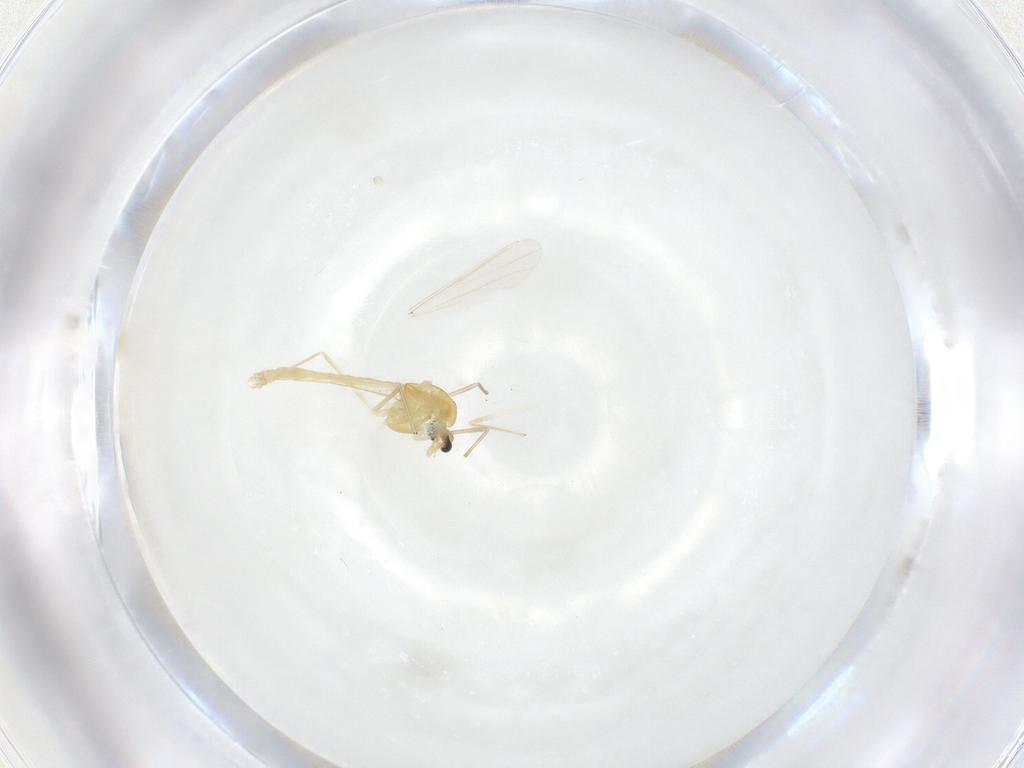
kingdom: Animalia
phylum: Arthropoda
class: Insecta
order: Diptera
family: Chironomidae
